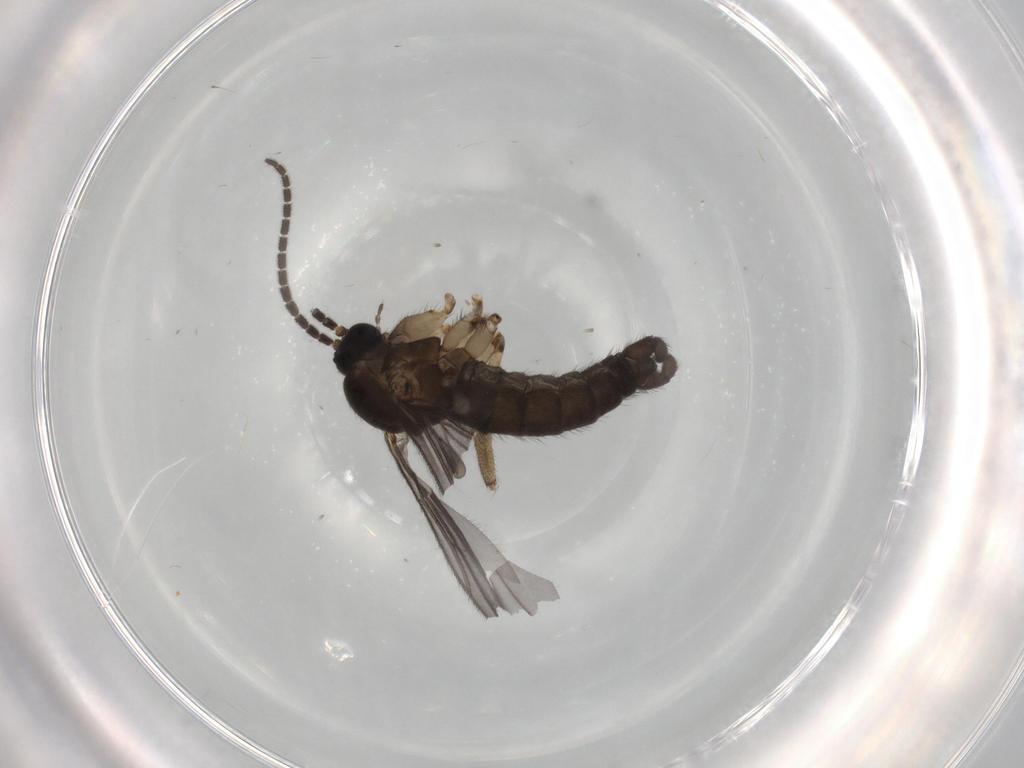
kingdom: Animalia
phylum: Arthropoda
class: Insecta
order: Diptera
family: Sciaridae
